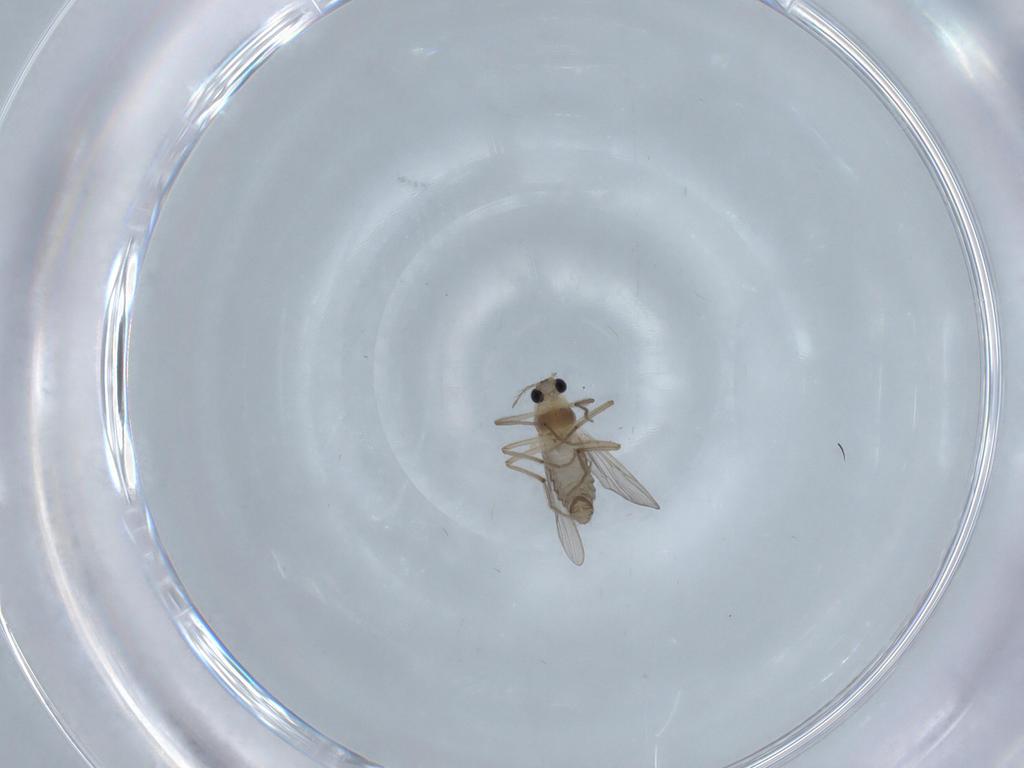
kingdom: Animalia
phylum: Arthropoda
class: Insecta
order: Diptera
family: Chironomidae
